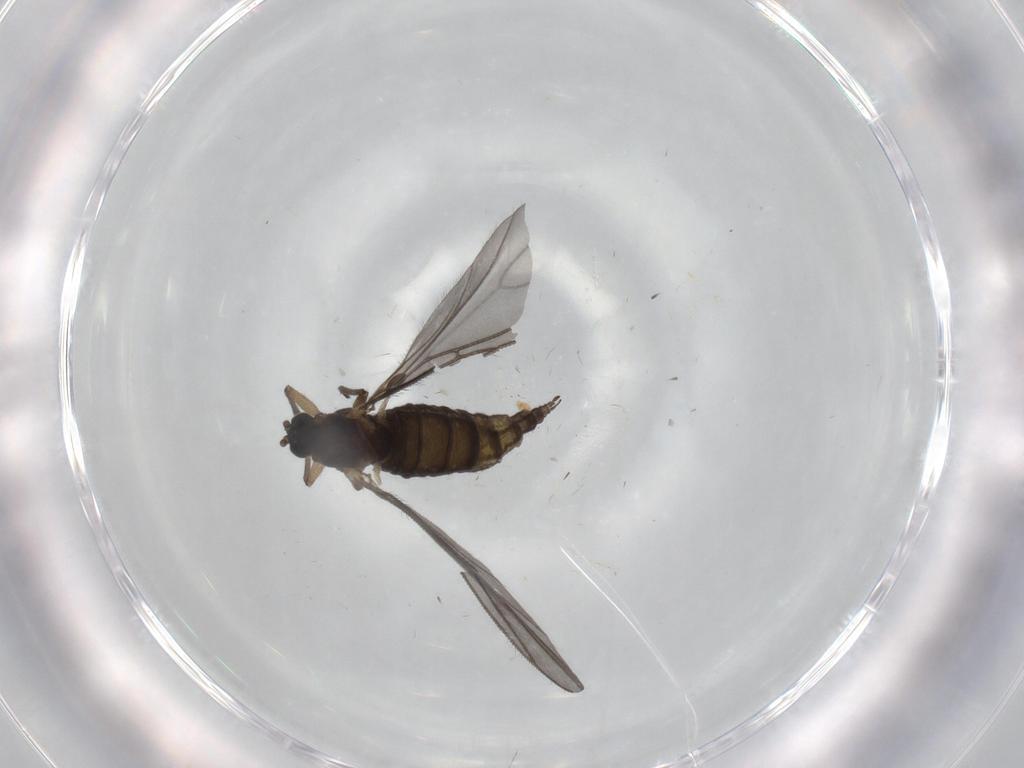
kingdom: Animalia
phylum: Arthropoda
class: Insecta
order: Diptera
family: Sciaridae
